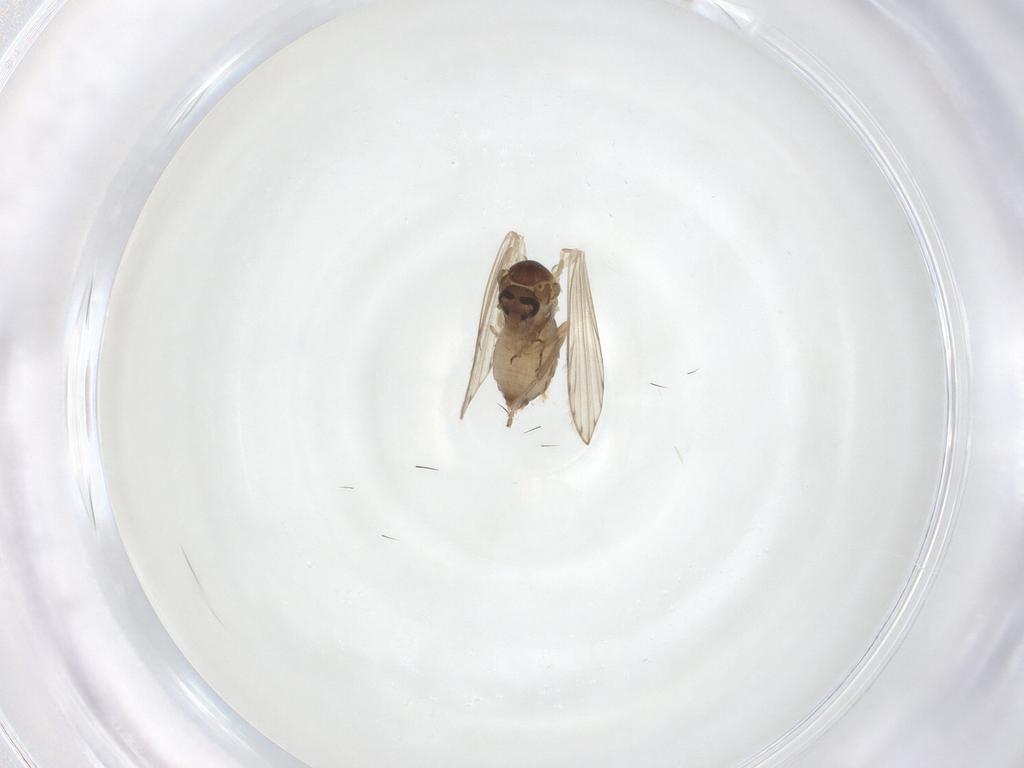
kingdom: Animalia
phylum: Arthropoda
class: Insecta
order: Diptera
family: Psychodidae
